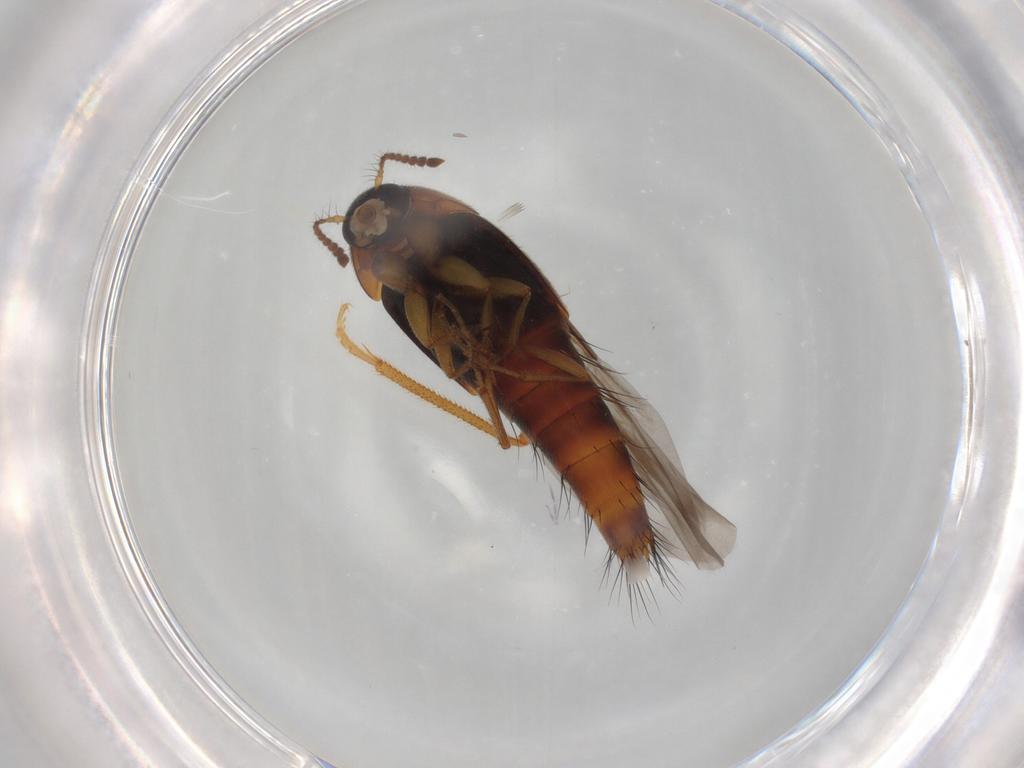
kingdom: Animalia
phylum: Arthropoda
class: Insecta
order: Coleoptera
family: Staphylinidae
